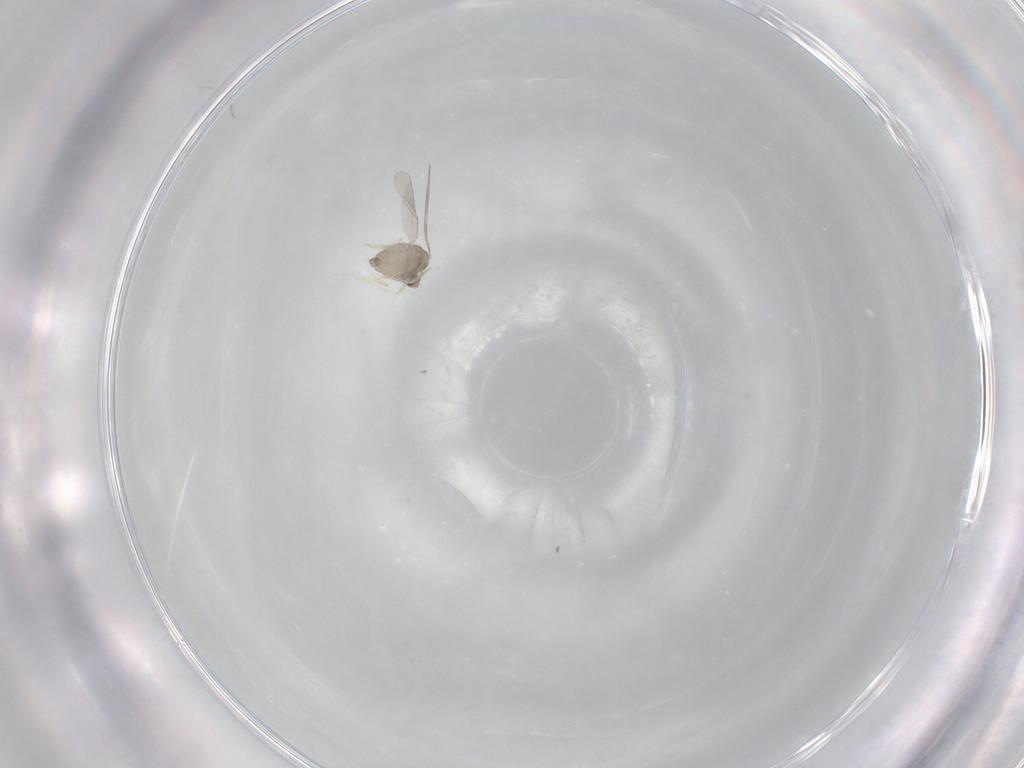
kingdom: Animalia
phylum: Arthropoda
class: Insecta
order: Diptera
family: Cecidomyiidae
